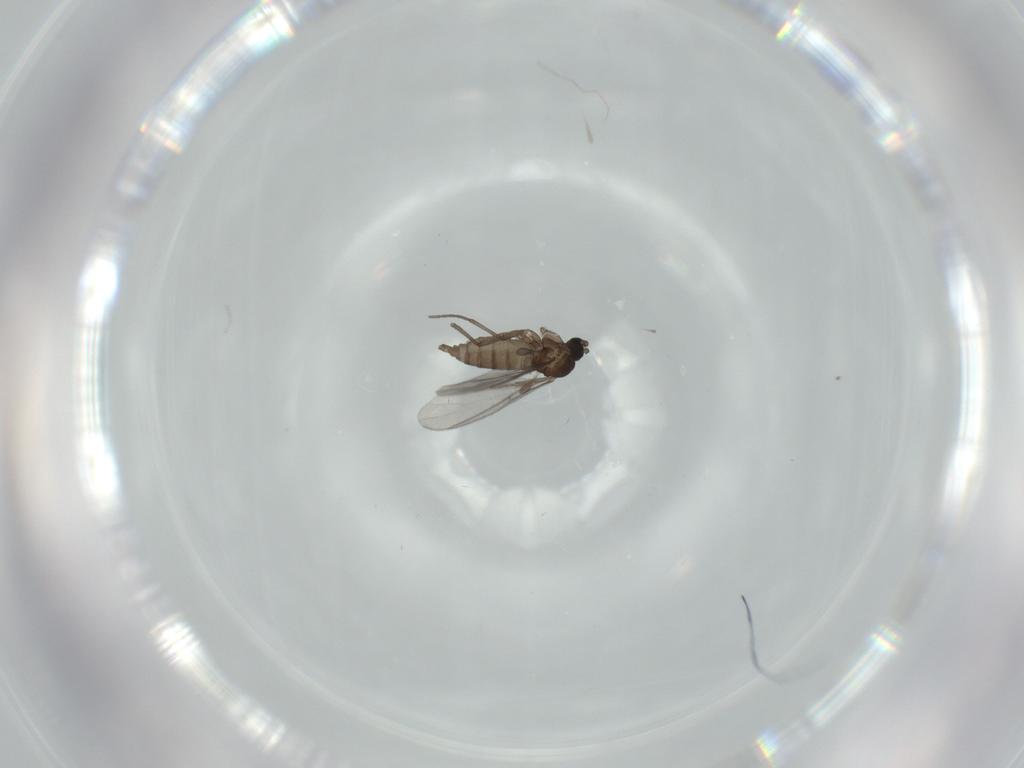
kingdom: Animalia
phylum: Arthropoda
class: Insecta
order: Diptera
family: Sciaridae
